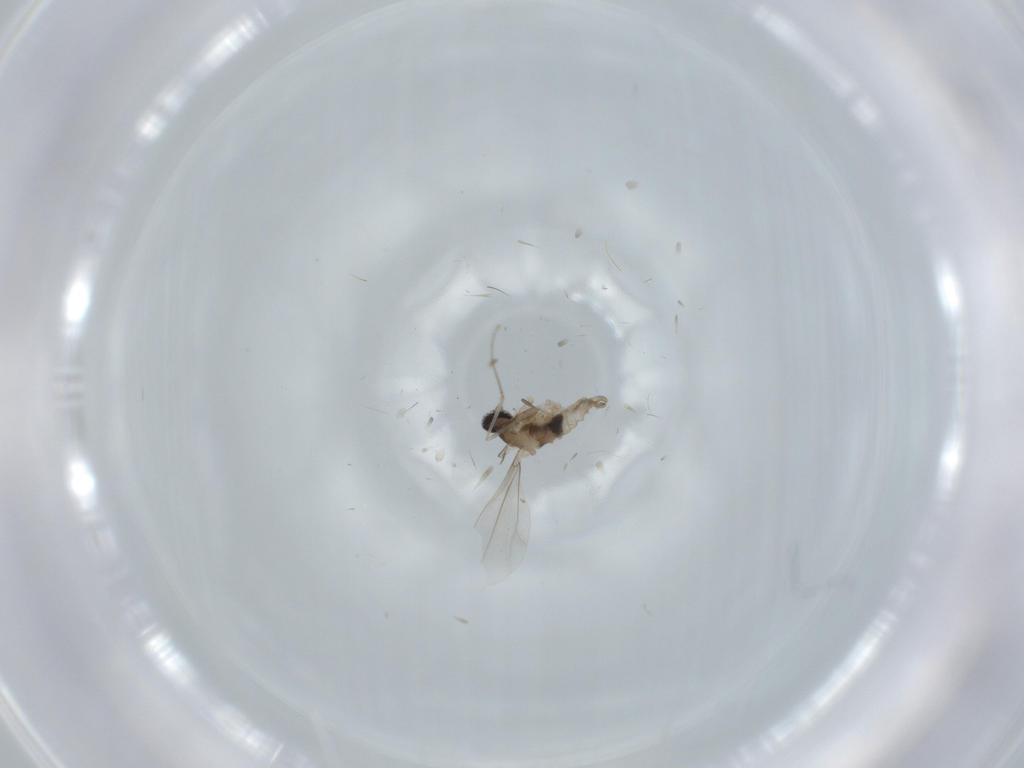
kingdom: Animalia
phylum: Arthropoda
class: Insecta
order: Diptera
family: Cecidomyiidae
